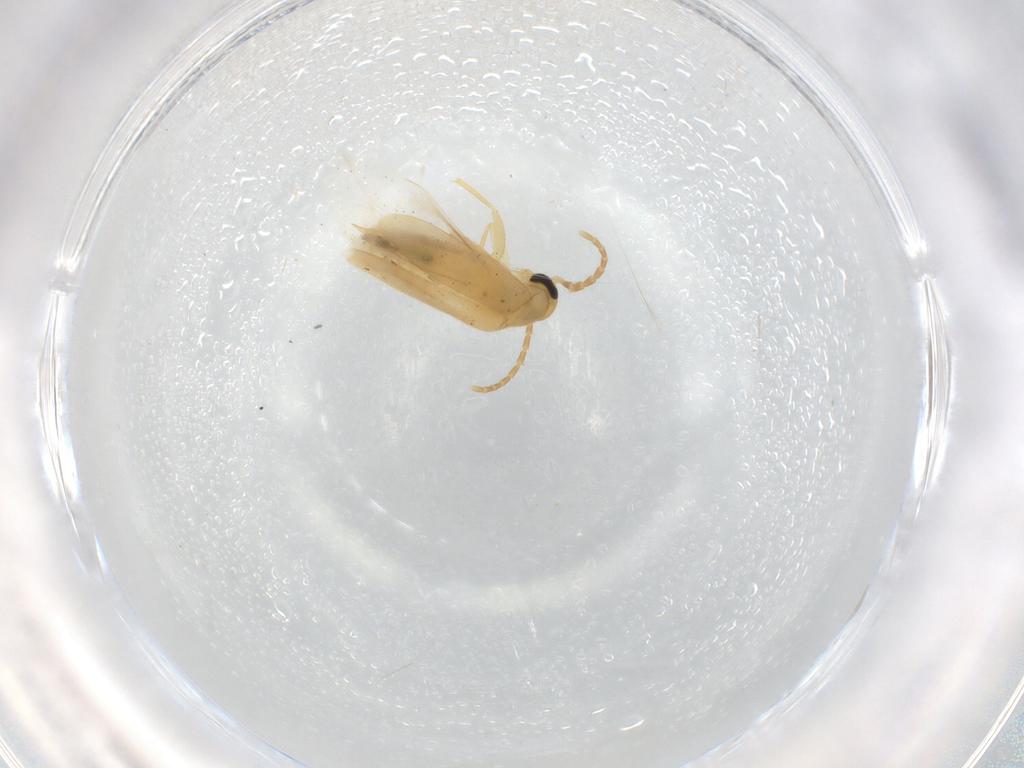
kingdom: Animalia
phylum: Arthropoda
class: Insecta
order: Coleoptera
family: Scraptiidae
